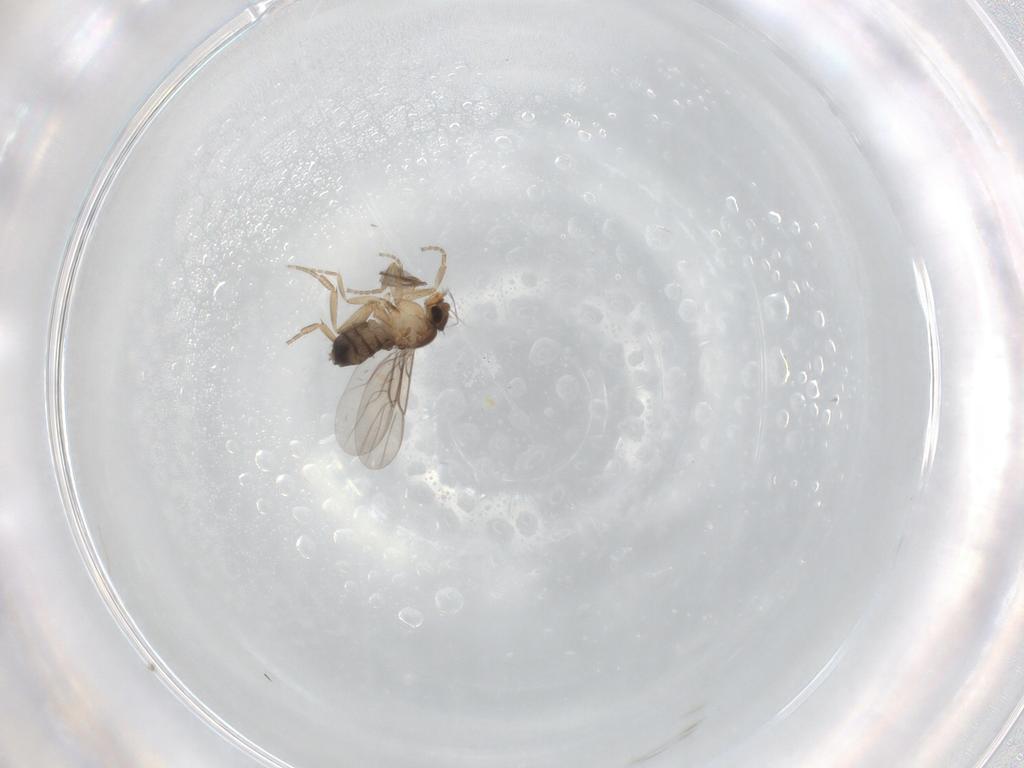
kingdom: Animalia
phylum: Arthropoda
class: Insecta
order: Diptera
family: Phoridae
